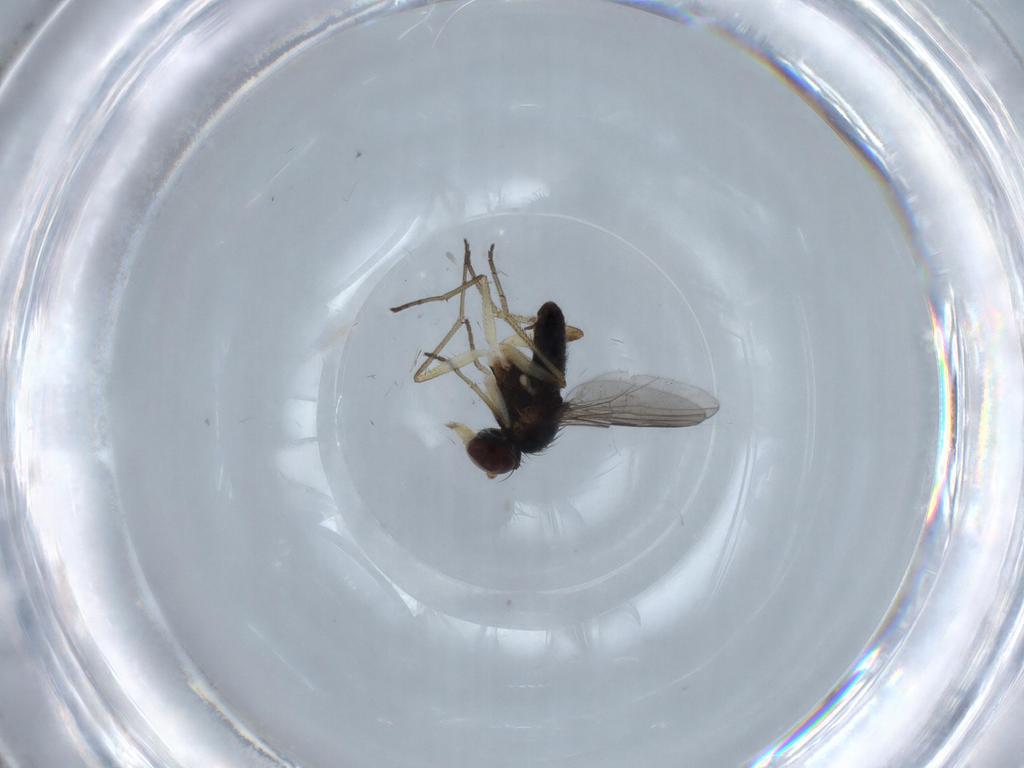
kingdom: Animalia
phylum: Arthropoda
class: Insecta
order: Diptera
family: Dolichopodidae
